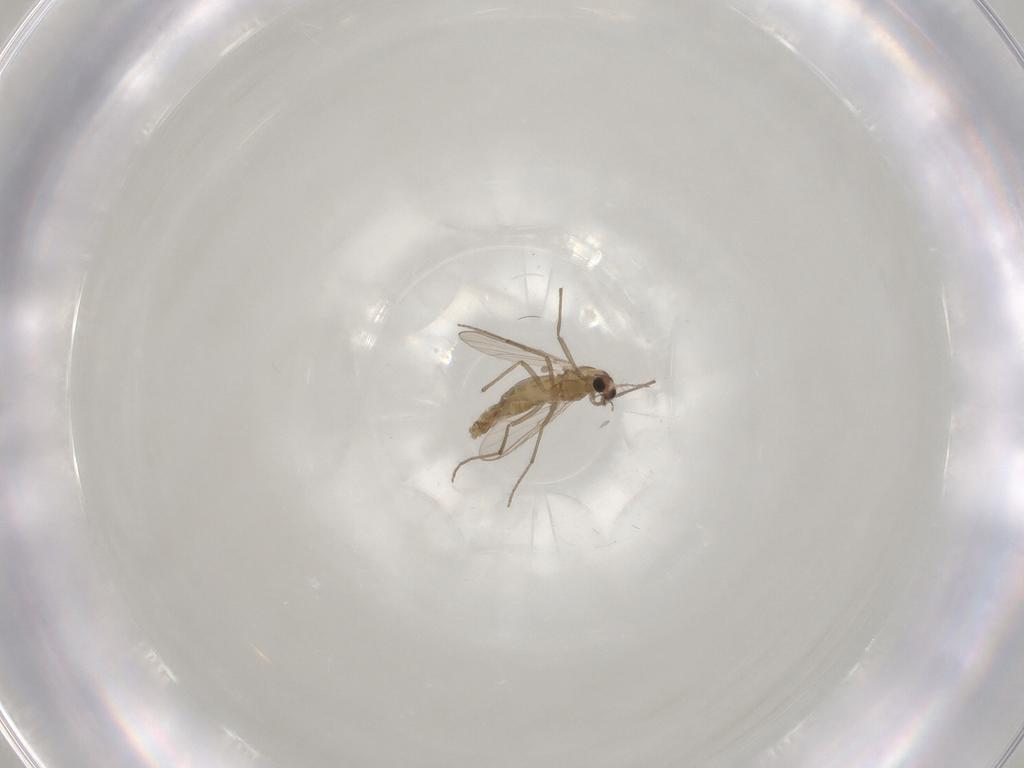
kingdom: Animalia
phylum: Arthropoda
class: Insecta
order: Diptera
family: Chironomidae
